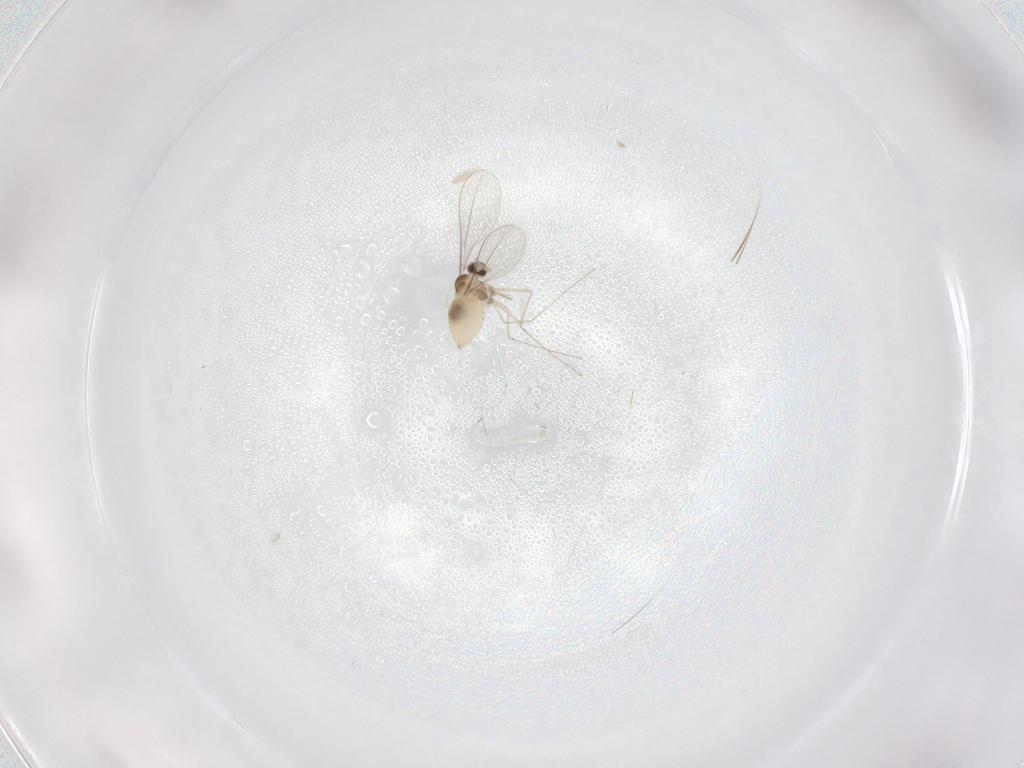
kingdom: Animalia
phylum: Arthropoda
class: Insecta
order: Diptera
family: Cecidomyiidae
